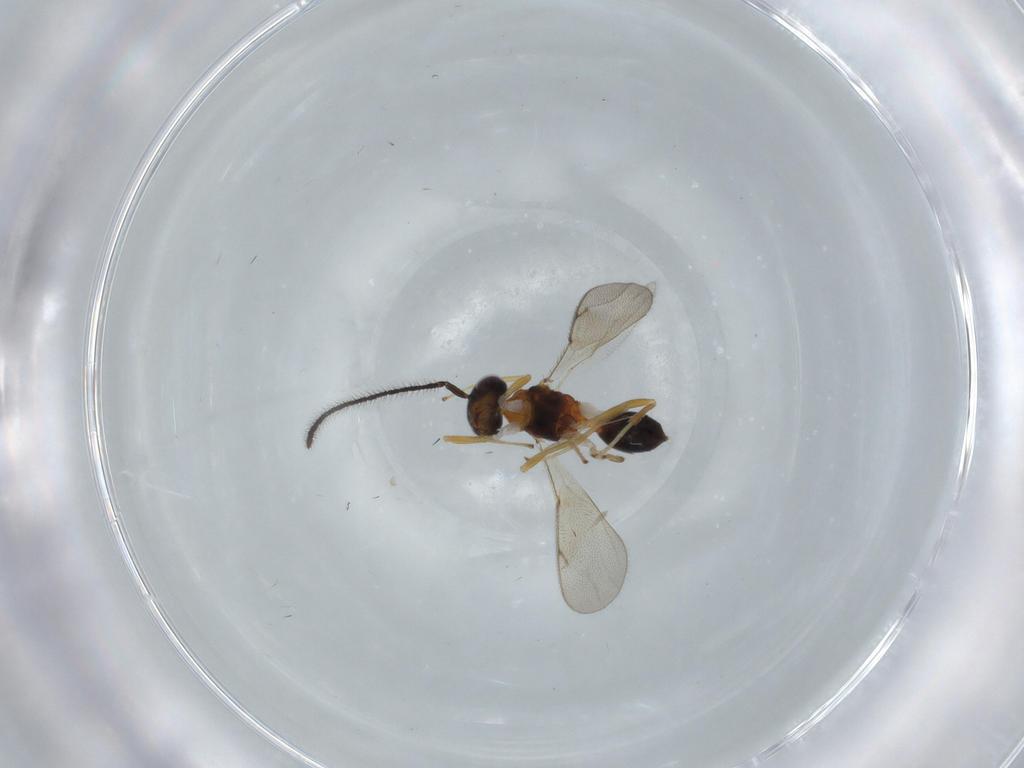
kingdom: Animalia
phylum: Arthropoda
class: Insecta
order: Hymenoptera
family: Diparidae
